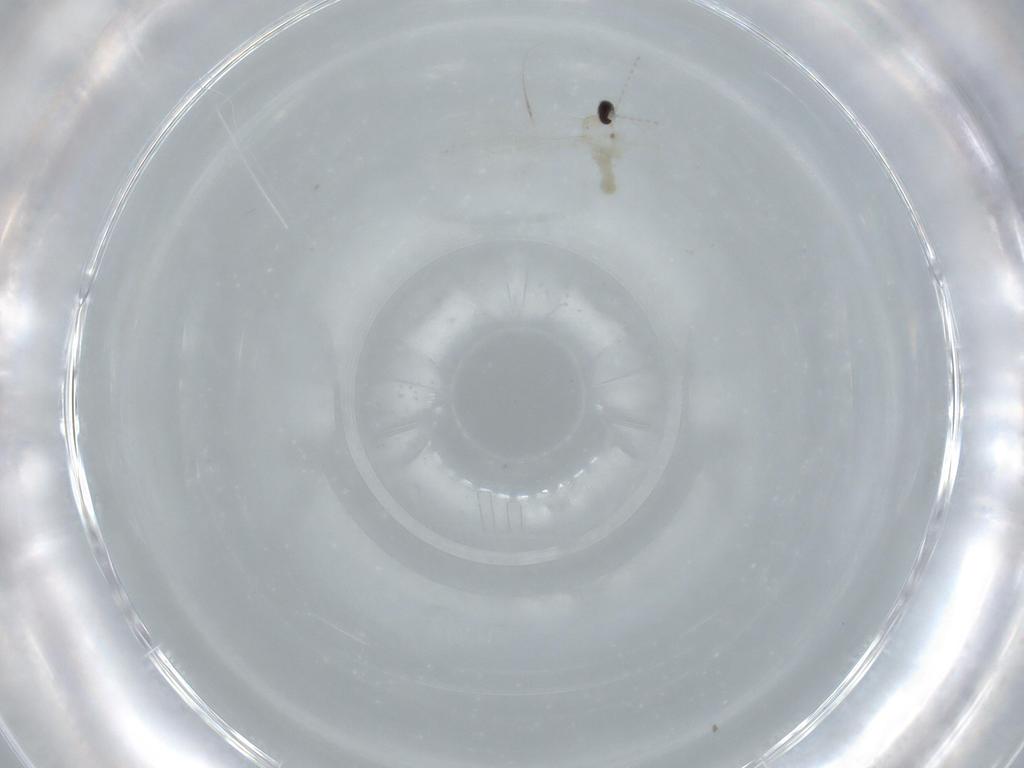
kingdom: Animalia
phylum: Arthropoda
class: Insecta
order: Diptera
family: Cecidomyiidae
